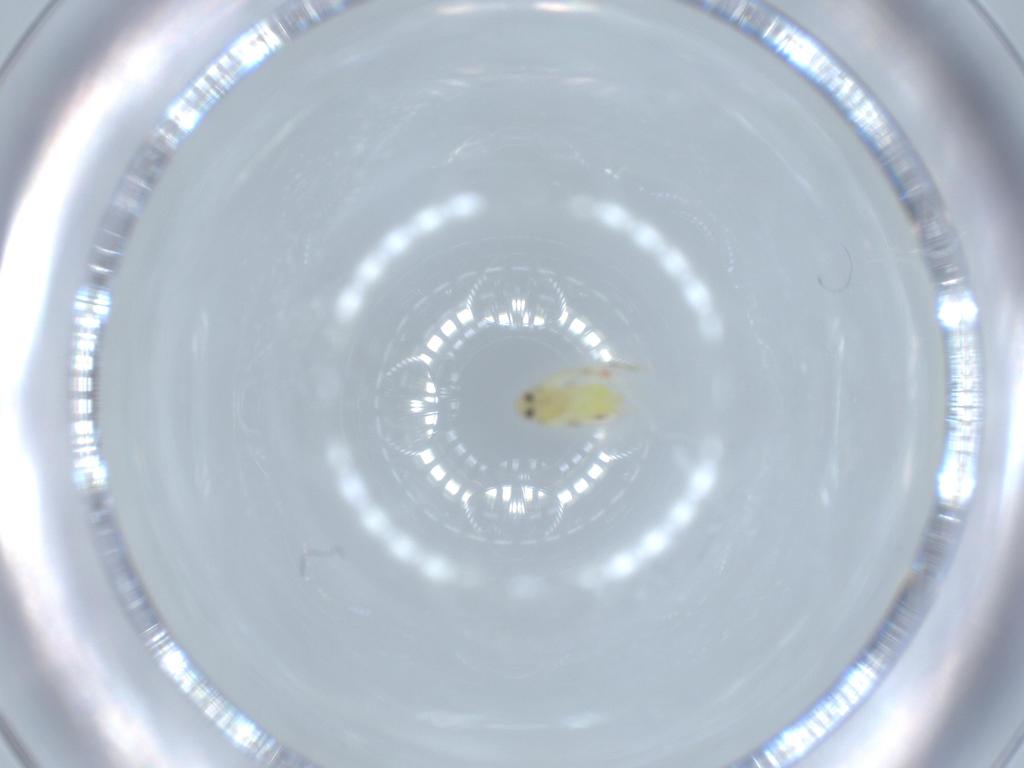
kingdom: Animalia
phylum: Arthropoda
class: Insecta
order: Hemiptera
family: Aleyrodidae
